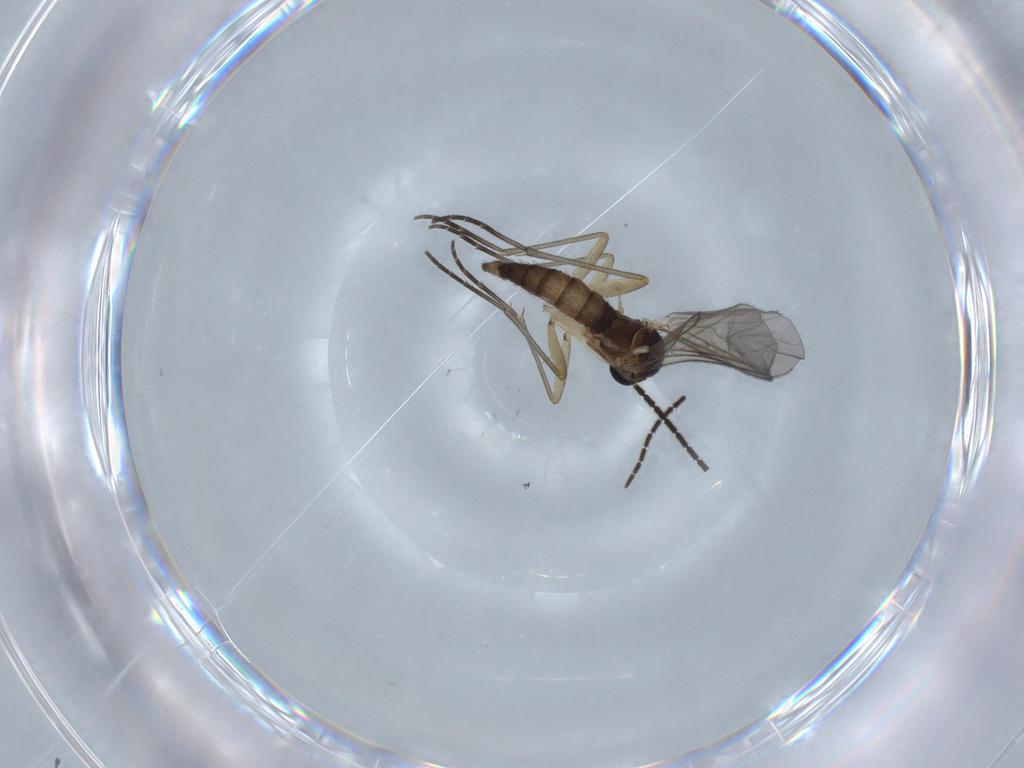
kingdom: Animalia
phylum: Arthropoda
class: Insecta
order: Diptera
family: Sciaridae
